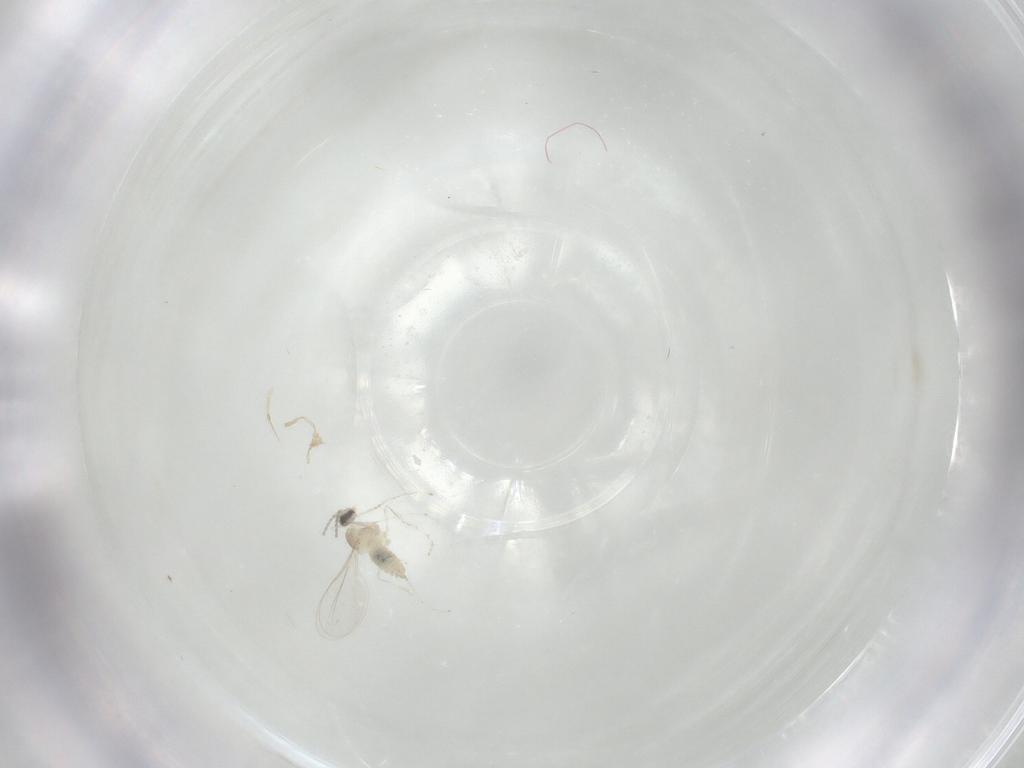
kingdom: Animalia
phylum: Arthropoda
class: Insecta
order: Diptera
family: Cecidomyiidae
